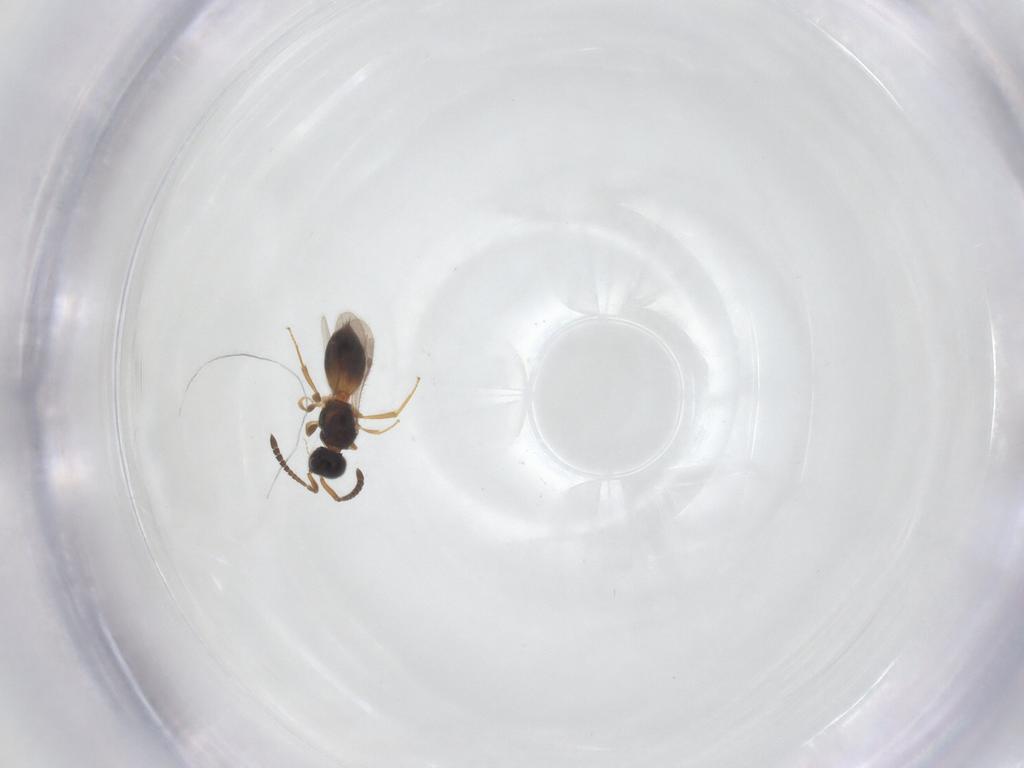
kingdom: Animalia
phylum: Arthropoda
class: Insecta
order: Hymenoptera
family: Megaspilidae
